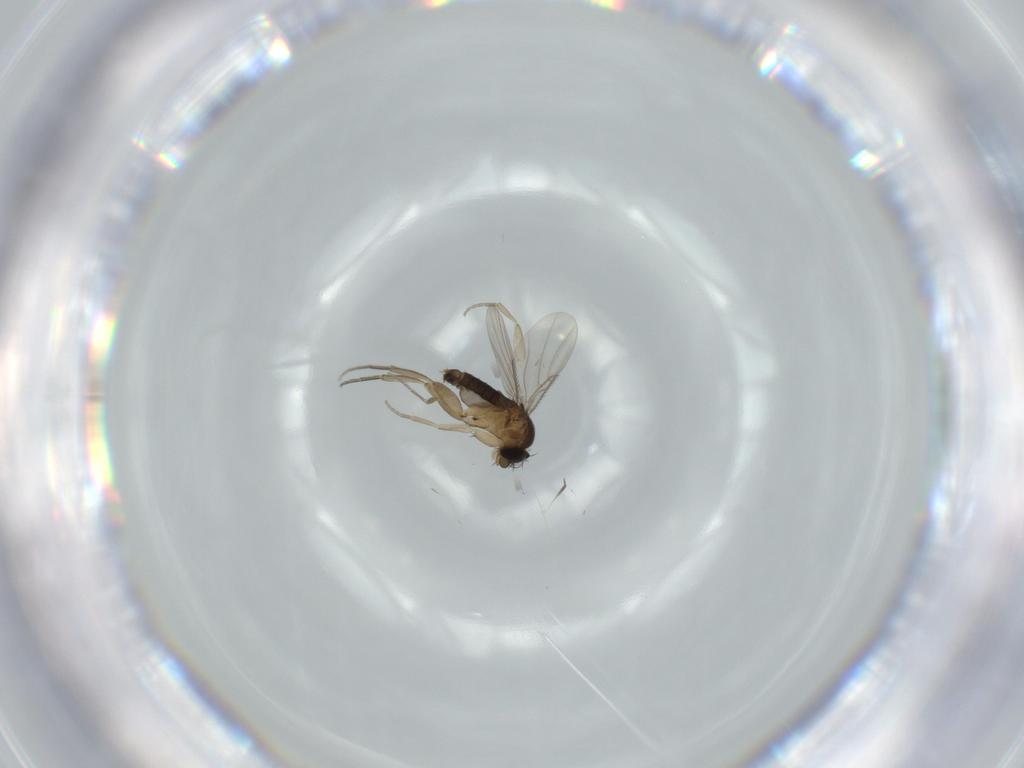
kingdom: Animalia
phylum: Arthropoda
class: Insecta
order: Diptera
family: Phoridae
